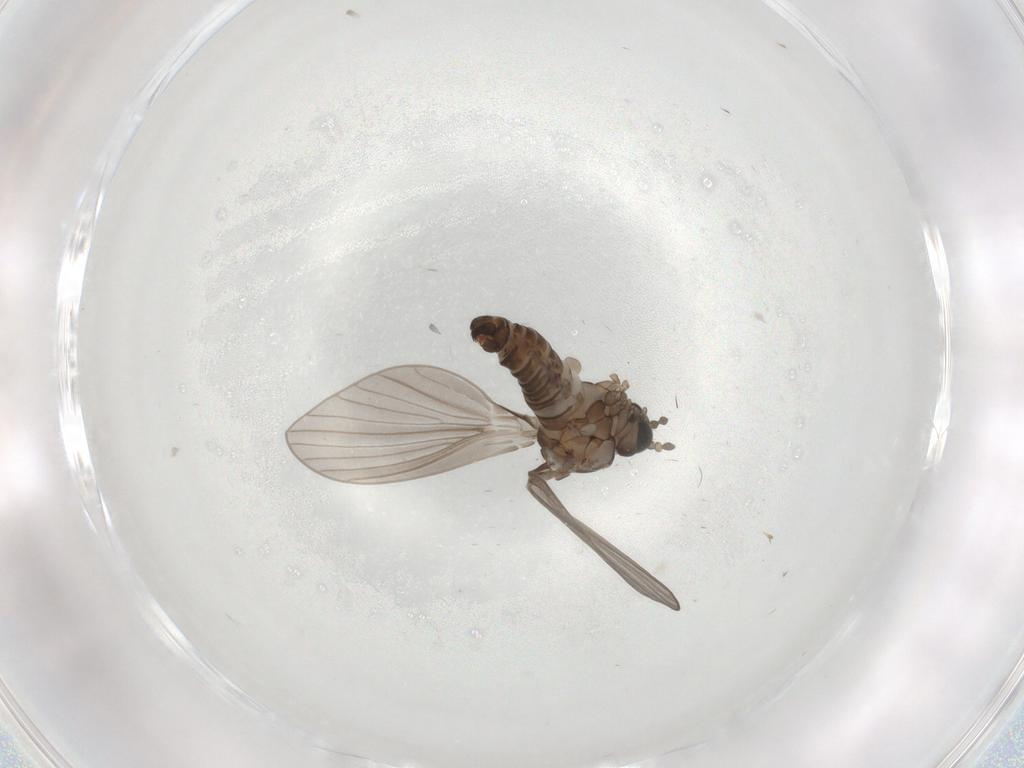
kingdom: Animalia
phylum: Arthropoda
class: Insecta
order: Diptera
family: Psychodidae
